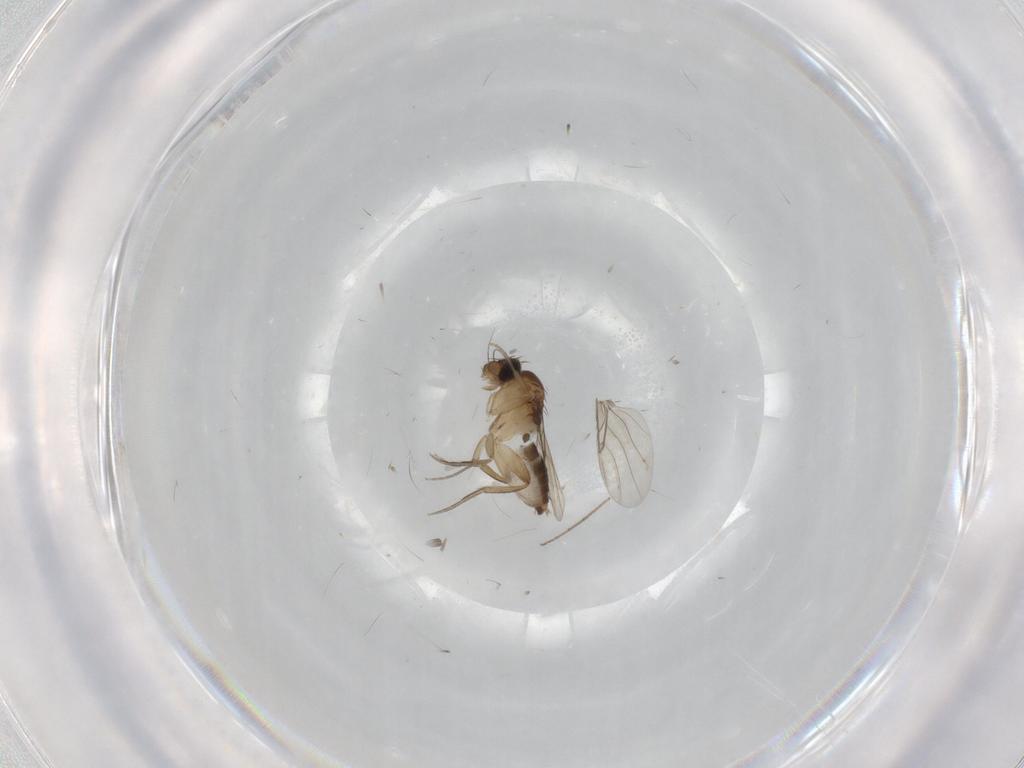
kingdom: Animalia
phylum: Arthropoda
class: Insecta
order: Diptera
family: Phoridae
